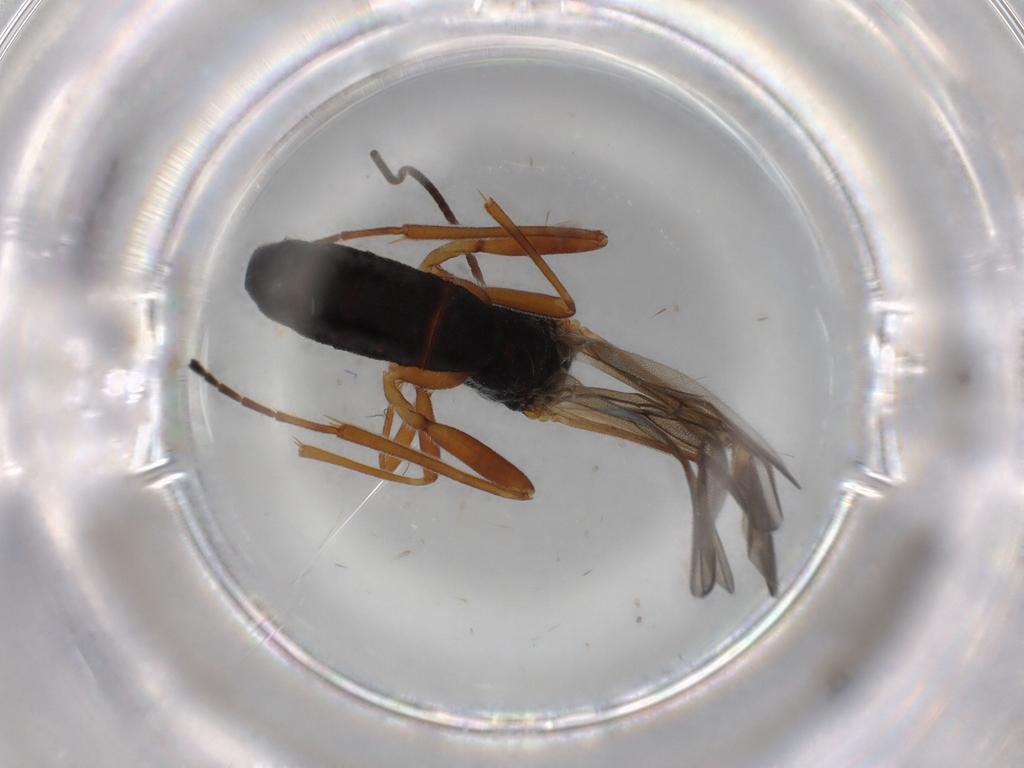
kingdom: Animalia
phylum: Arthropoda
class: Insecta
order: Hymenoptera
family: Braconidae
